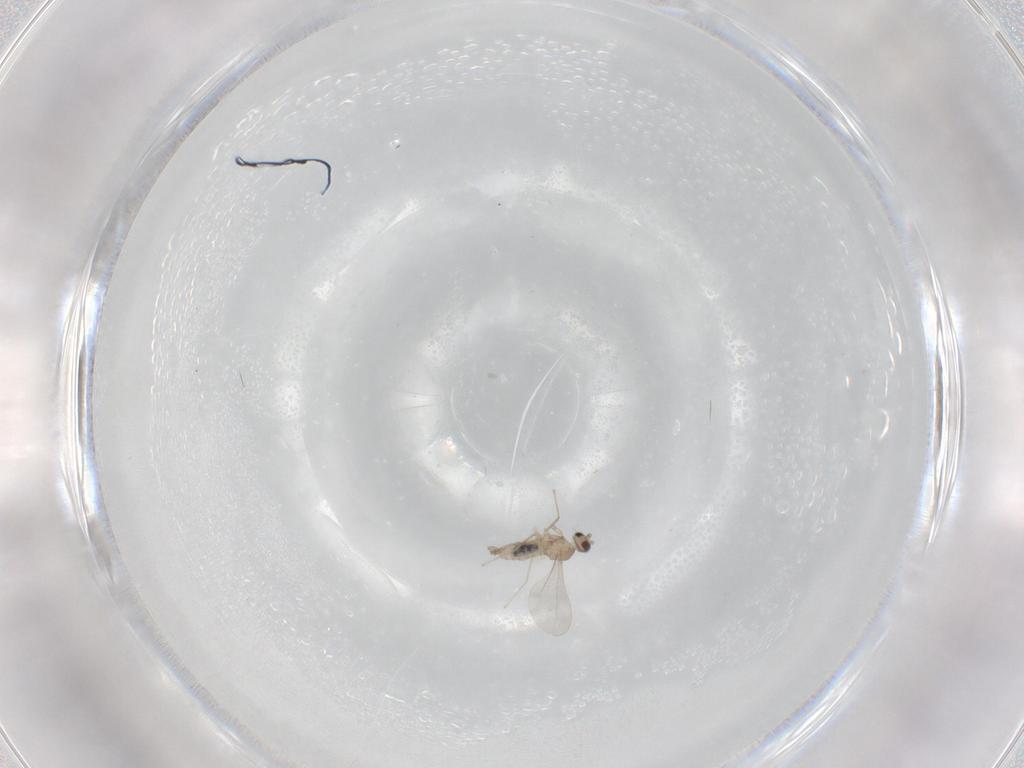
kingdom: Animalia
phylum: Arthropoda
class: Insecta
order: Diptera
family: Cecidomyiidae
